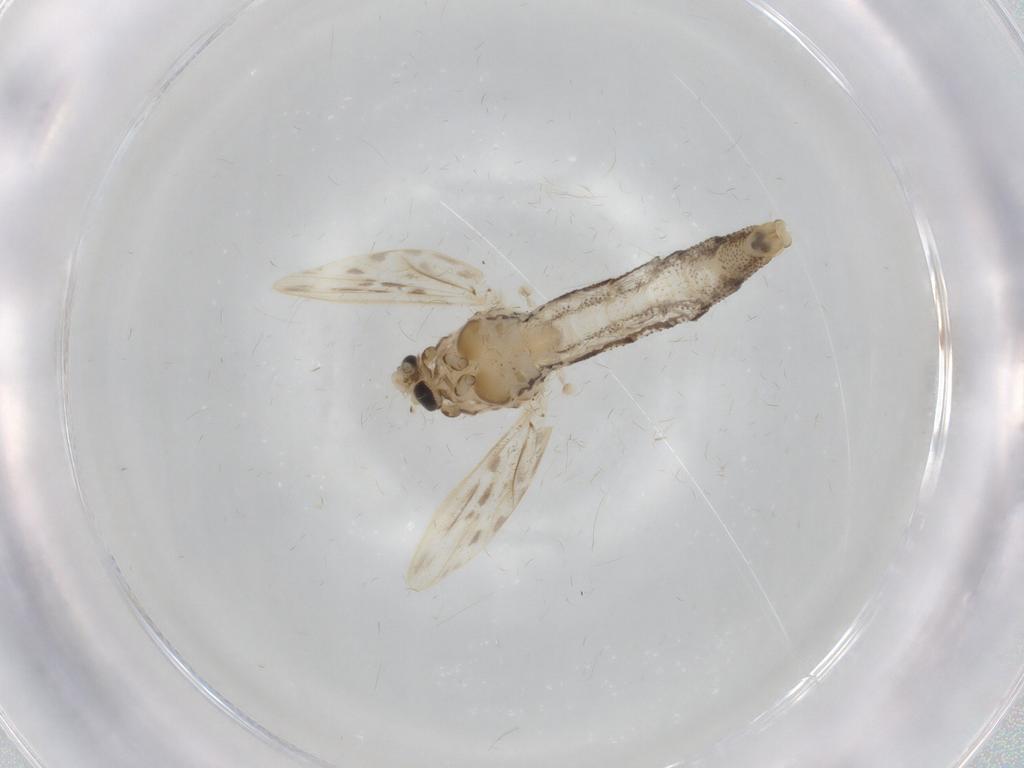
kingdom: Animalia
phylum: Arthropoda
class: Insecta
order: Diptera
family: Chaoboridae
